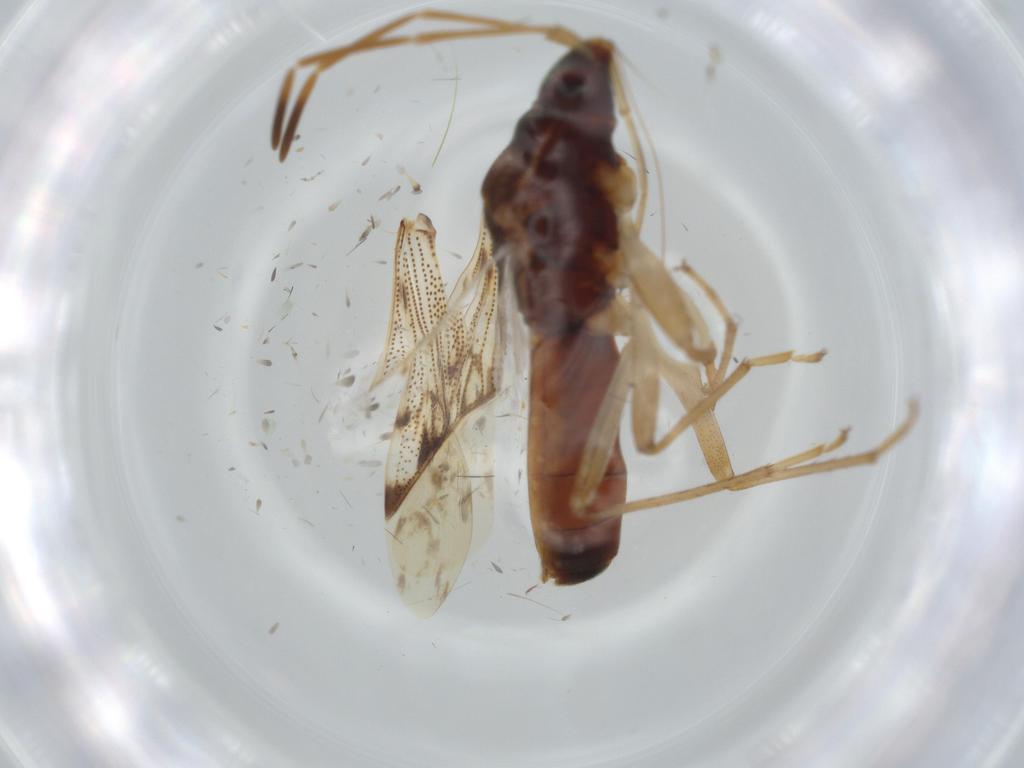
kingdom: Animalia
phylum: Arthropoda
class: Insecta
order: Hemiptera
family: Rhyparochromidae
